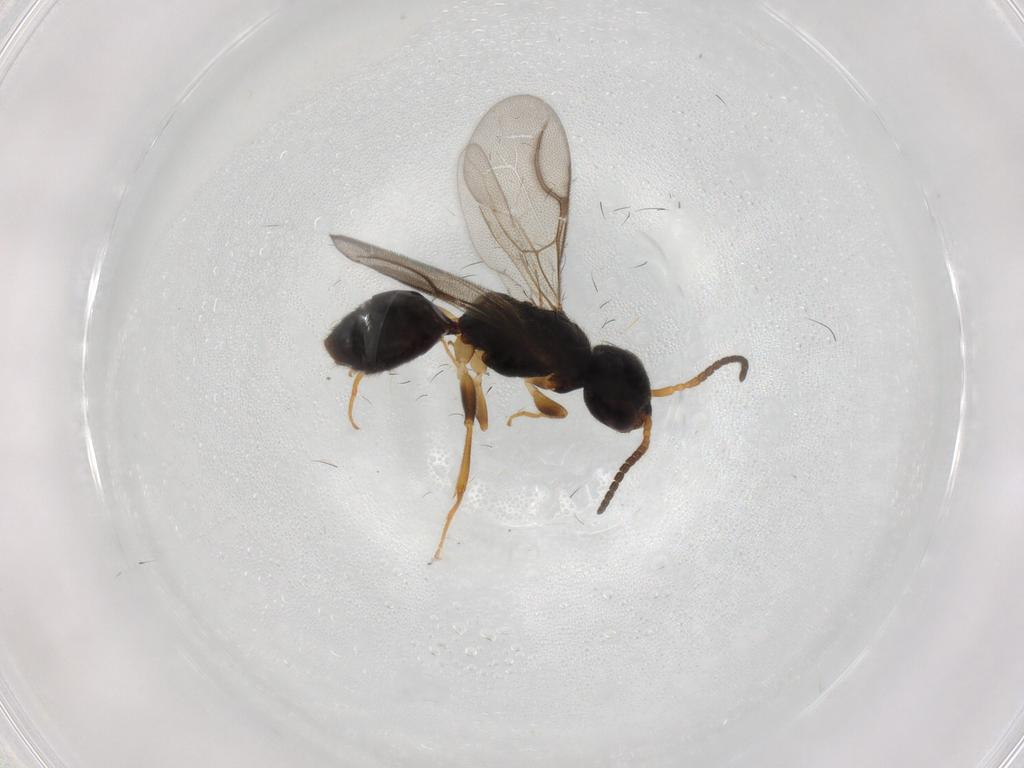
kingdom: Animalia
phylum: Arthropoda
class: Insecta
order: Hymenoptera
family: Bethylidae
